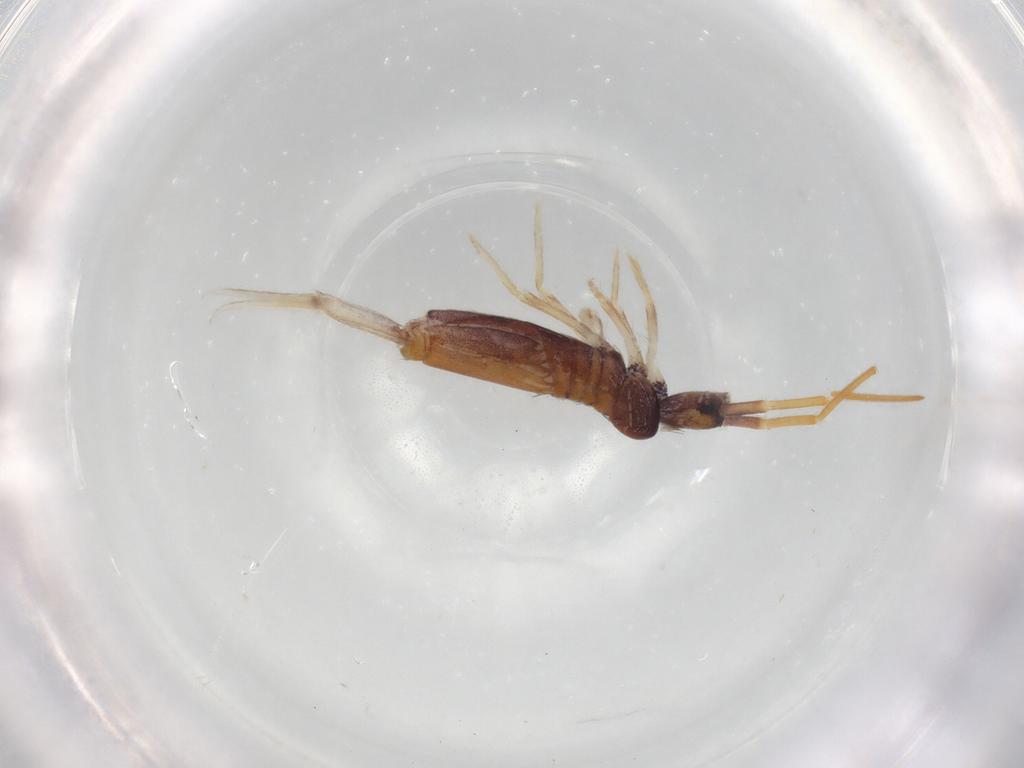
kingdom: Animalia
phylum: Arthropoda
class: Collembola
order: Entomobryomorpha
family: Entomobryidae
